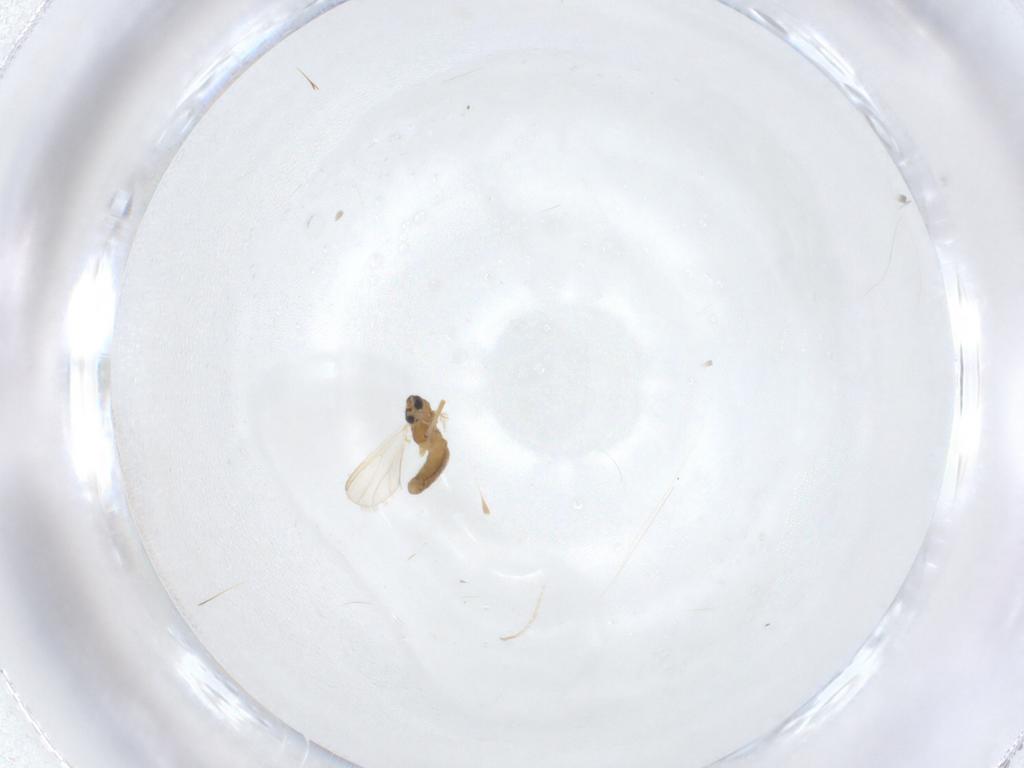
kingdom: Animalia
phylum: Arthropoda
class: Insecta
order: Diptera
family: Chironomidae
